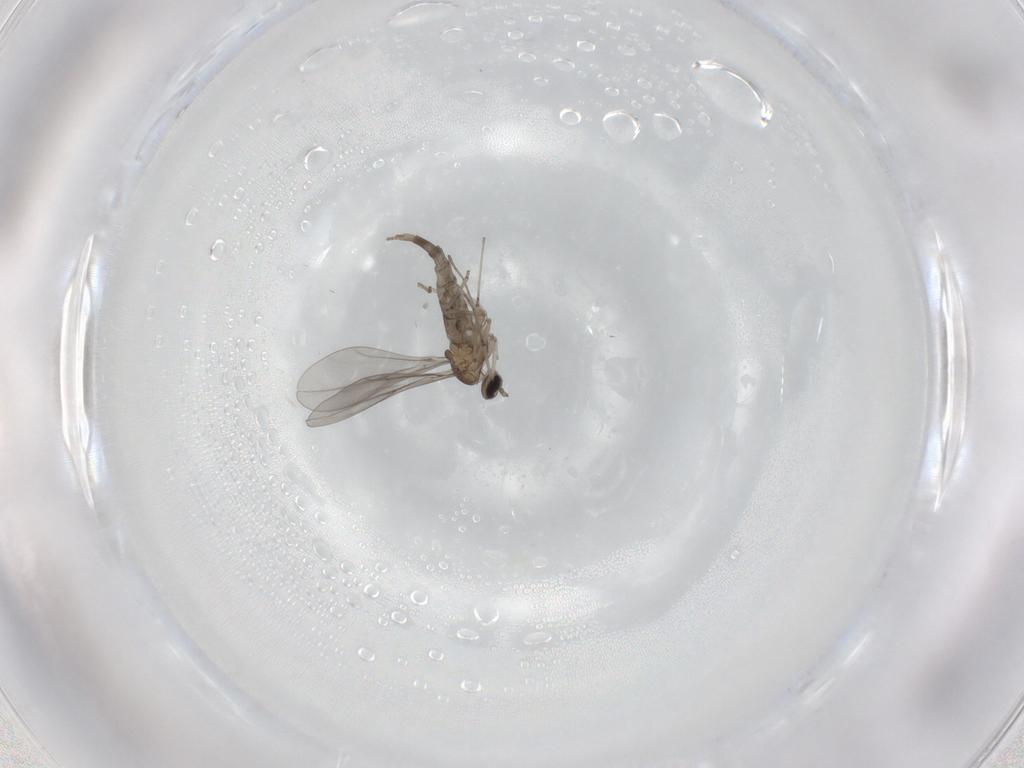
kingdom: Animalia
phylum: Arthropoda
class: Insecta
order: Diptera
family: Cecidomyiidae
